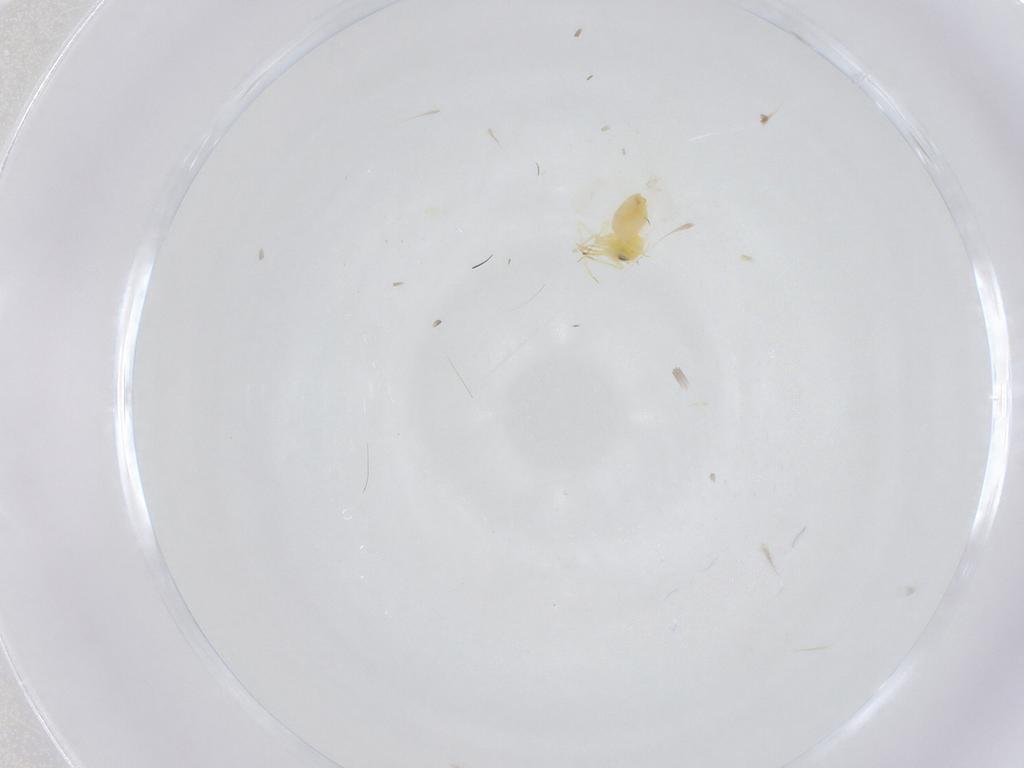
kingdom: Animalia
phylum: Arthropoda
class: Insecta
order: Hemiptera
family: Aleyrodidae
